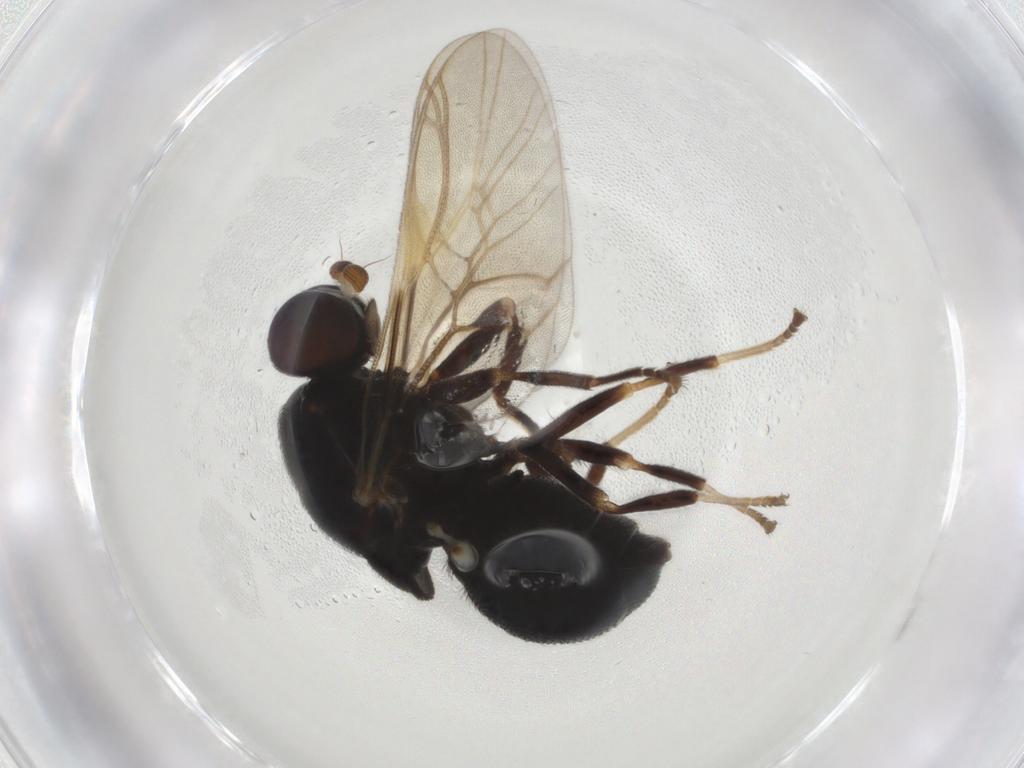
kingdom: Animalia
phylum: Arthropoda
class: Insecta
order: Diptera
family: Stratiomyidae
